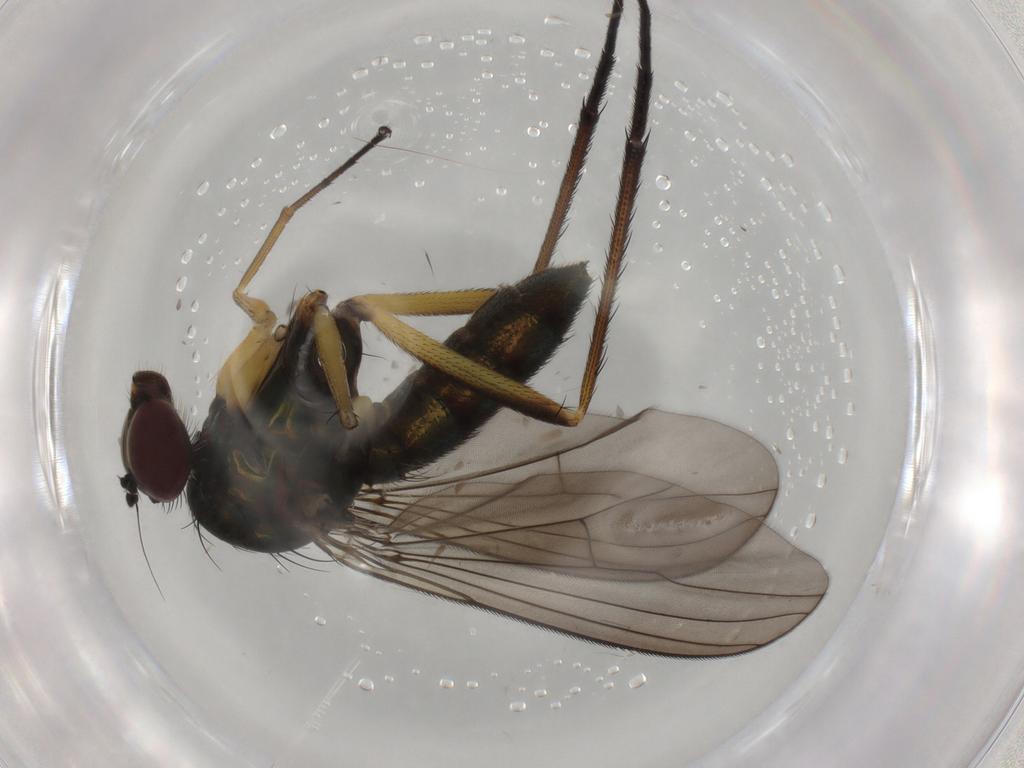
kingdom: Animalia
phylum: Arthropoda
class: Insecta
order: Diptera
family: Dolichopodidae
